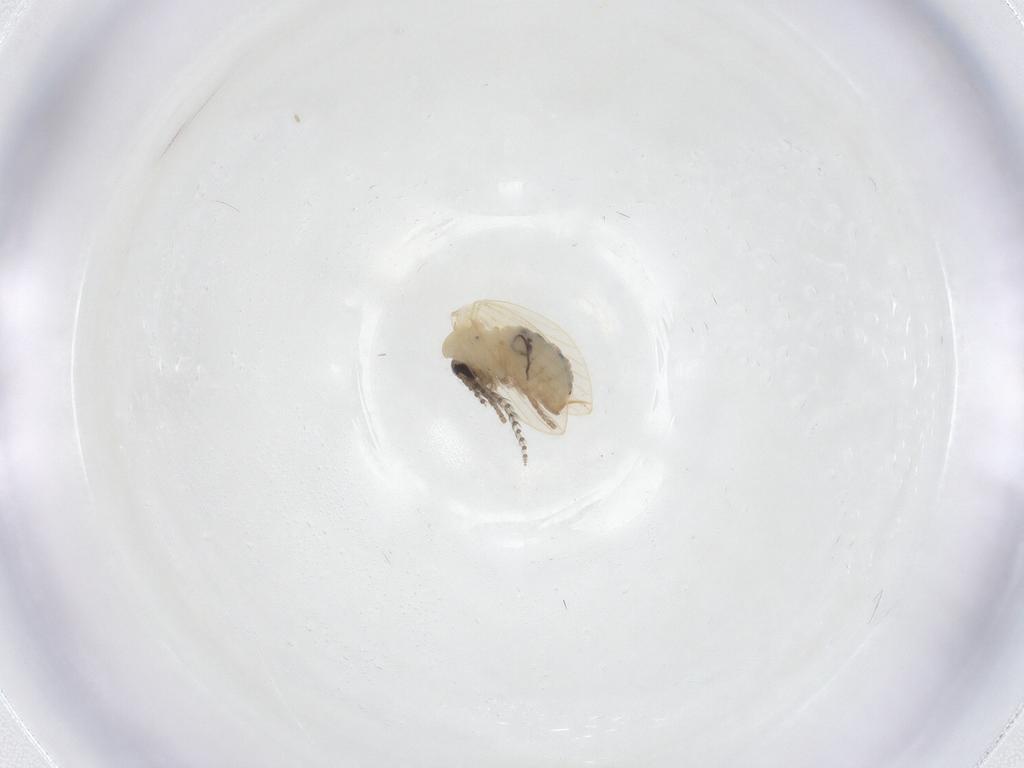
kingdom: Animalia
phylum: Arthropoda
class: Insecta
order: Diptera
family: Psychodidae
